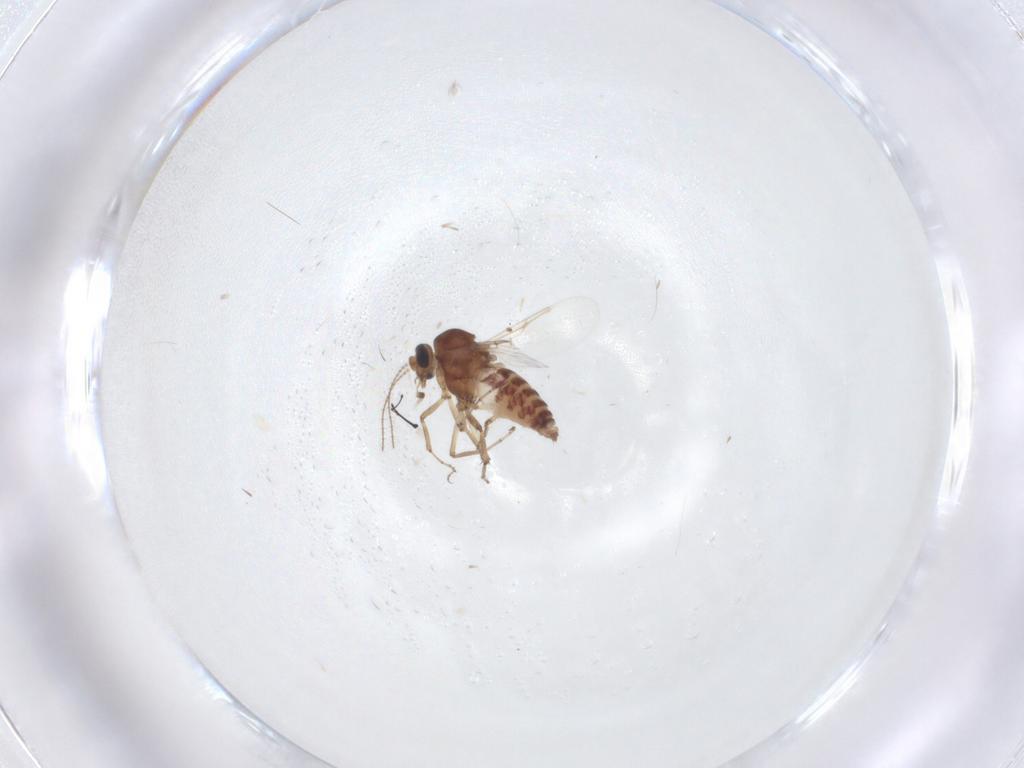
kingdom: Animalia
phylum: Arthropoda
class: Insecta
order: Diptera
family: Ceratopogonidae
